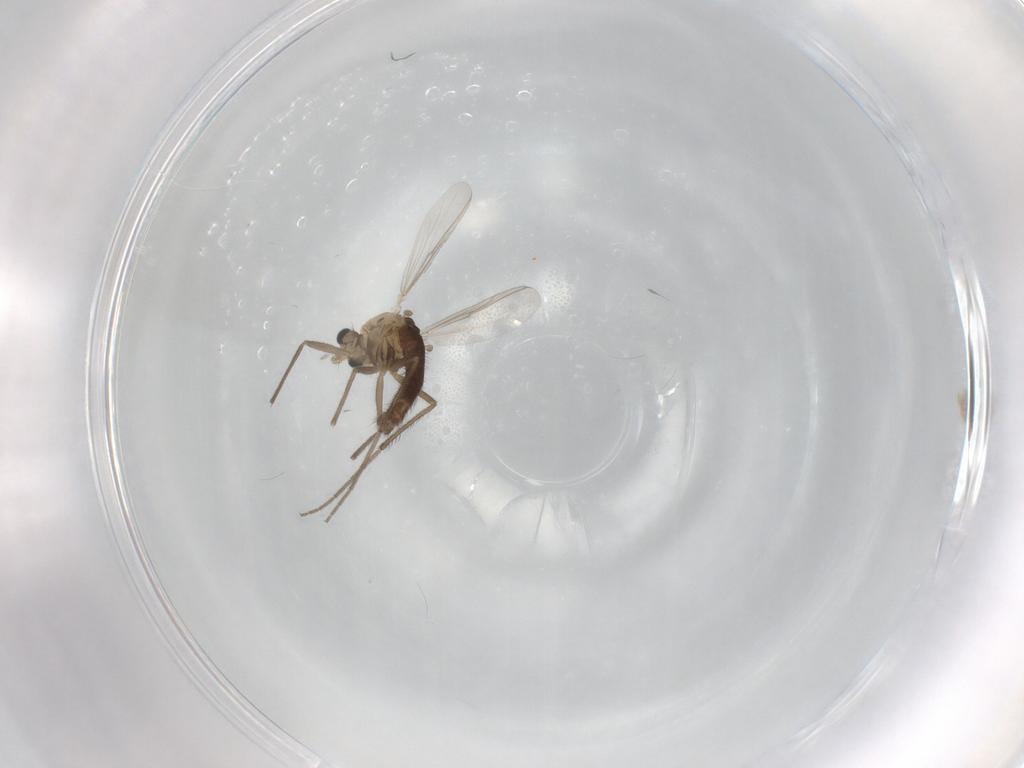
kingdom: Animalia
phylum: Arthropoda
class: Insecta
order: Diptera
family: Chironomidae
